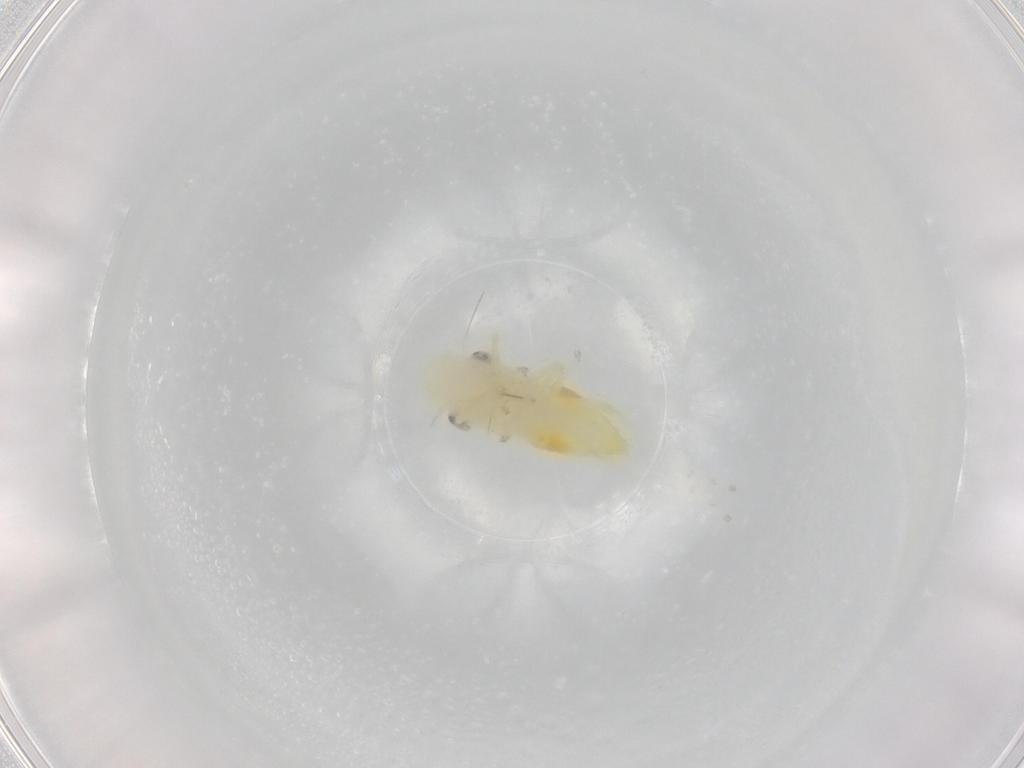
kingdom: Animalia
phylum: Arthropoda
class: Insecta
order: Hemiptera
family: Cicadellidae
